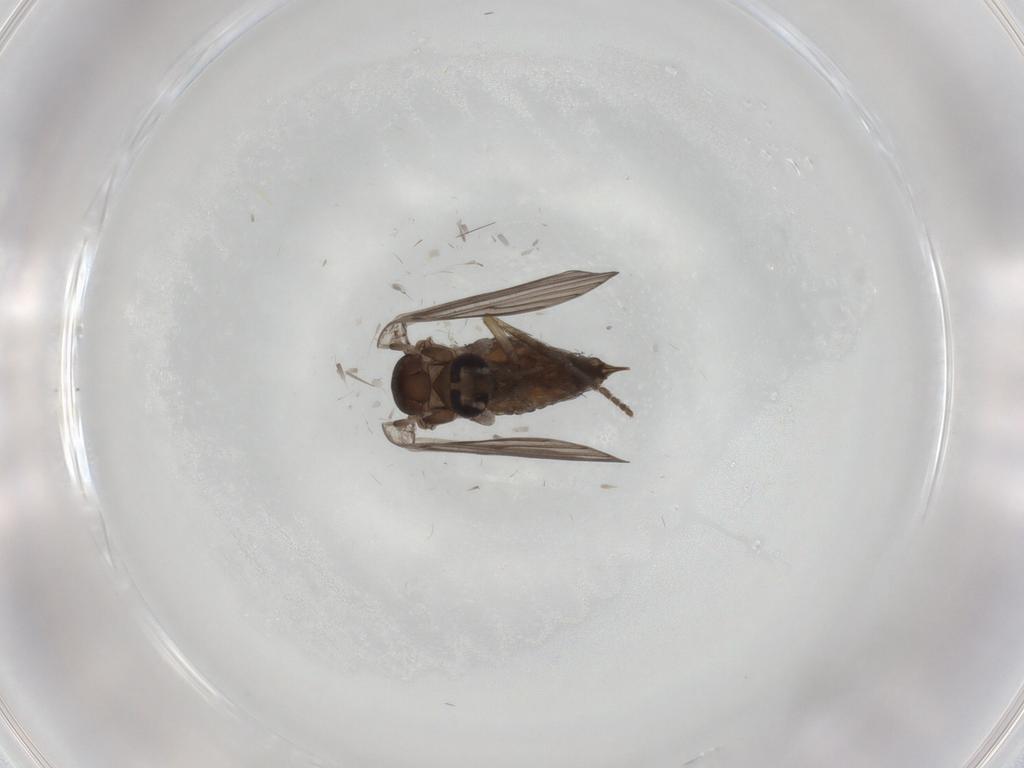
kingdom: Animalia
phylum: Arthropoda
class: Insecta
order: Diptera
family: Psychodidae
